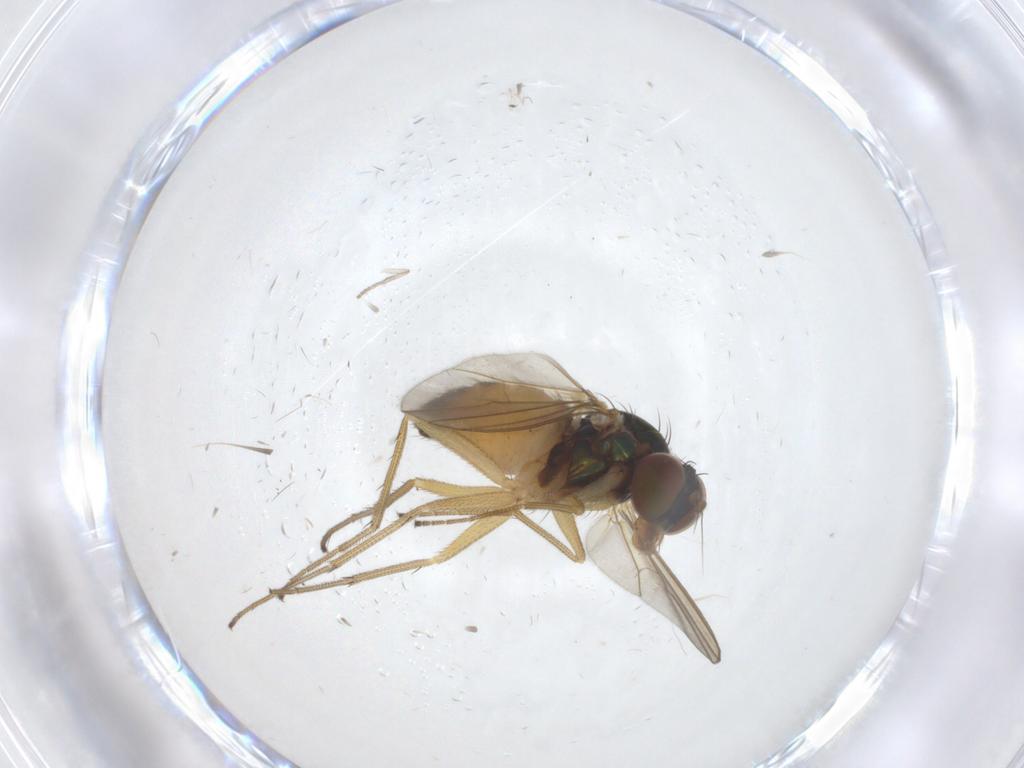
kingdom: Animalia
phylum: Arthropoda
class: Insecta
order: Diptera
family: Dolichopodidae
